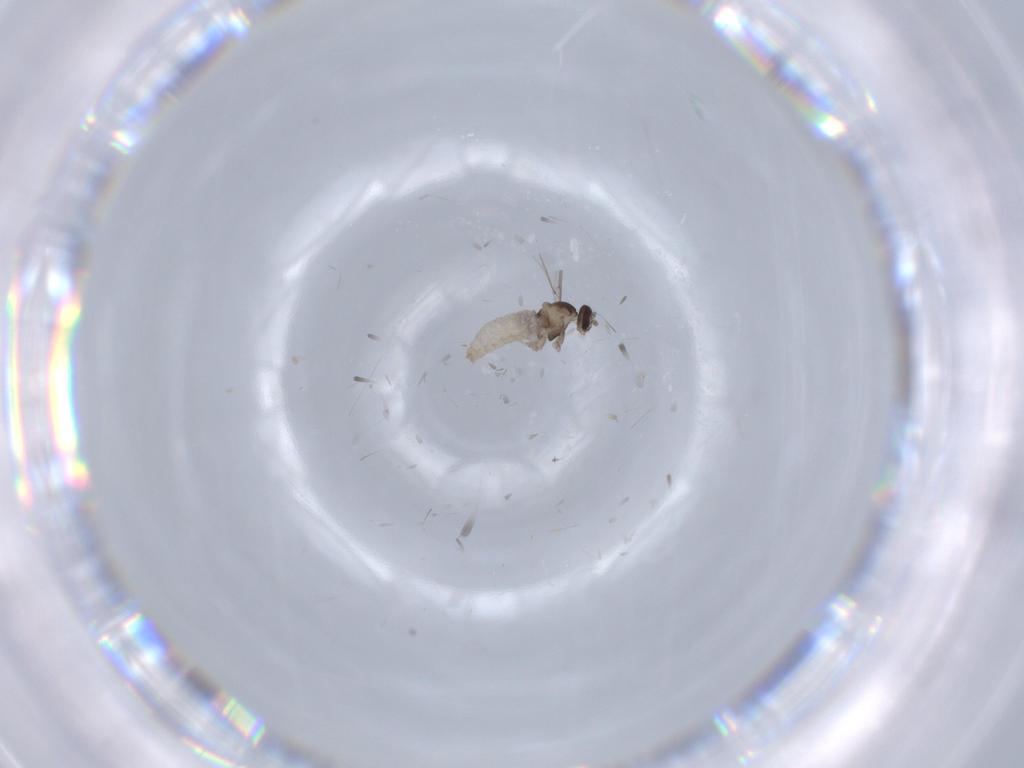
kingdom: Animalia
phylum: Arthropoda
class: Insecta
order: Diptera
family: Cecidomyiidae
